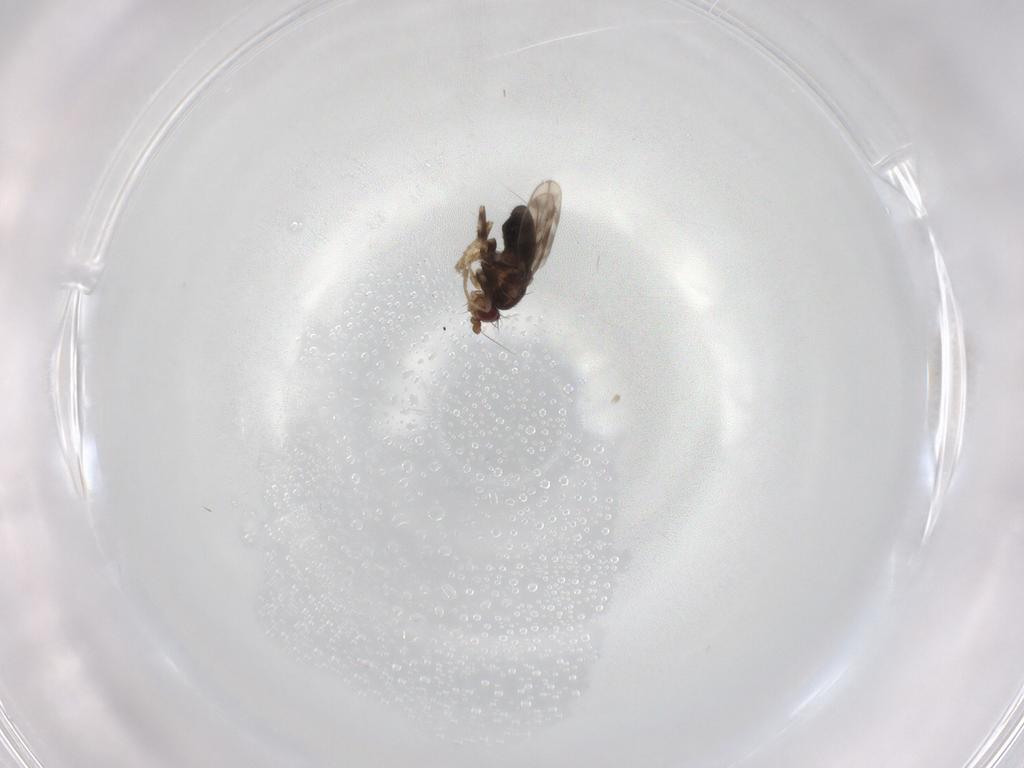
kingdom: Animalia
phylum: Arthropoda
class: Insecta
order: Diptera
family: Sphaeroceridae
